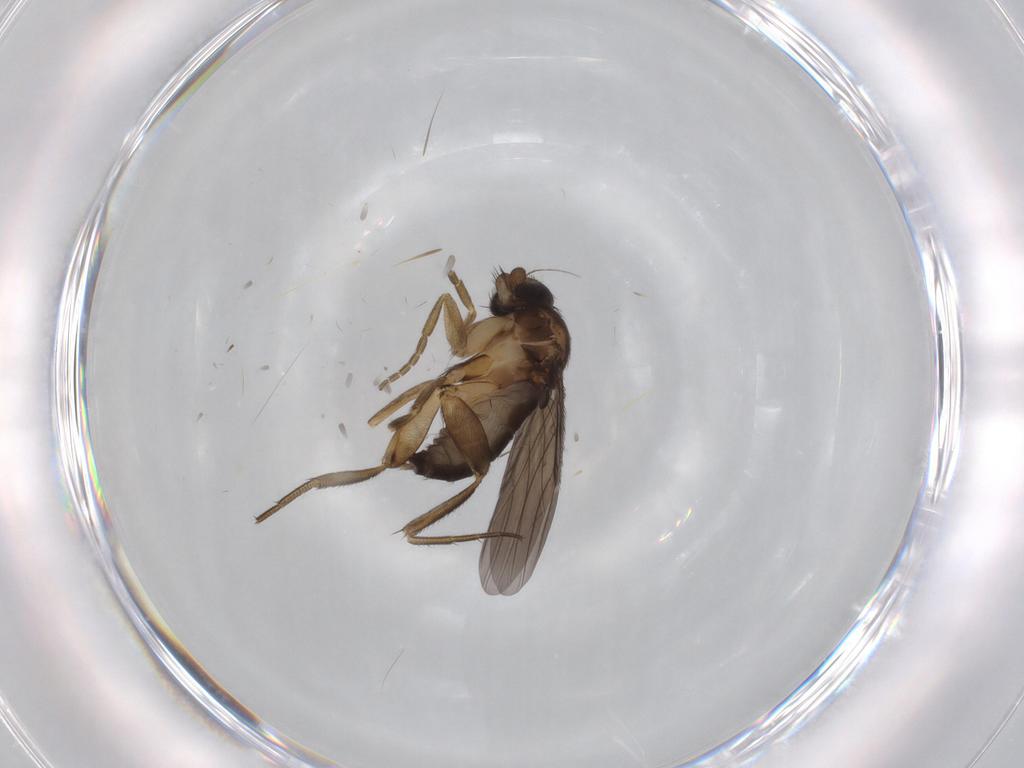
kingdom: Animalia
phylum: Arthropoda
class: Insecta
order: Diptera
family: Phoridae
